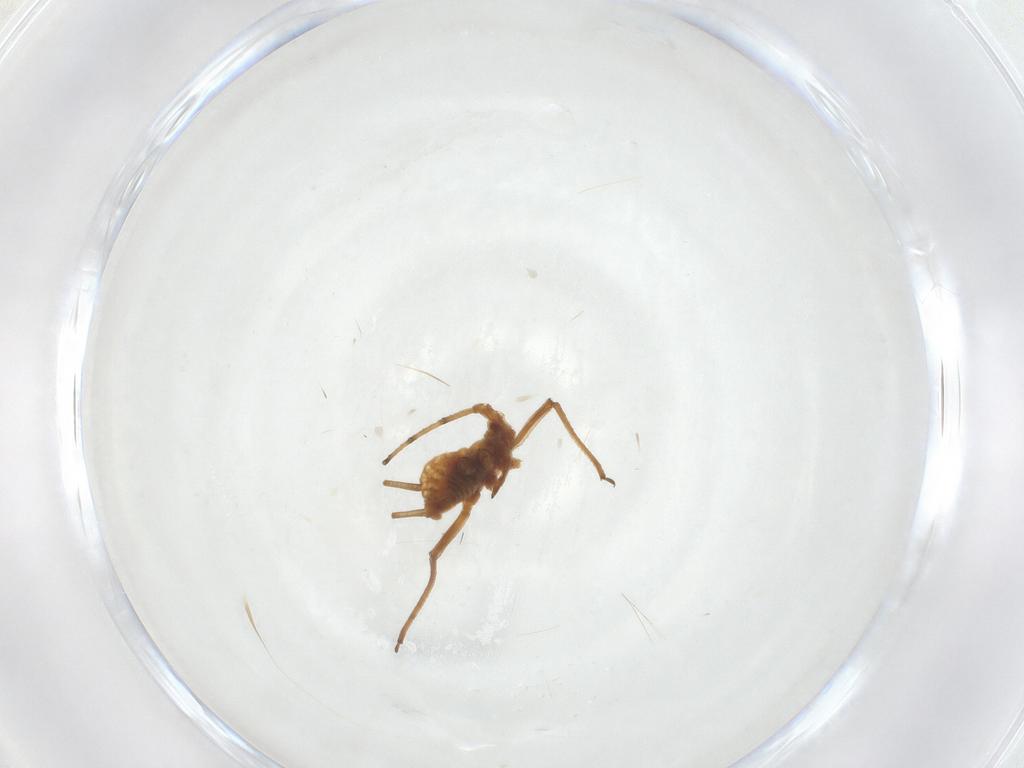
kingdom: Animalia
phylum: Arthropoda
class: Insecta
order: Hemiptera
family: Aphididae
